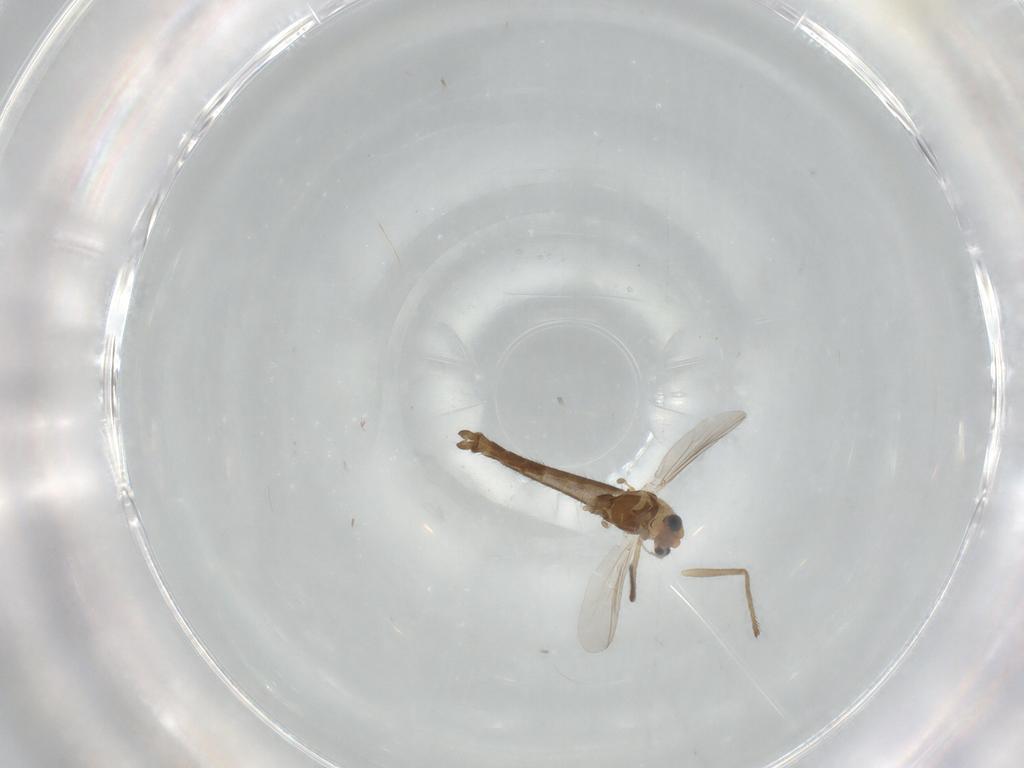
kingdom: Animalia
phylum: Arthropoda
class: Insecta
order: Diptera
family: Chironomidae
